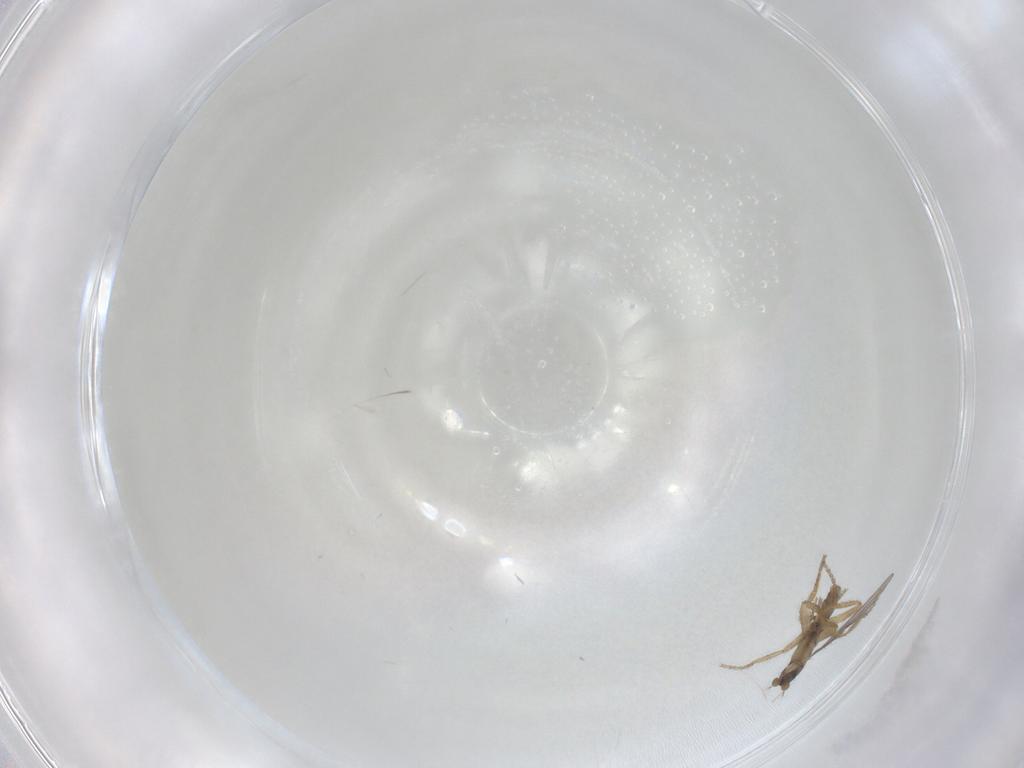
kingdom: Animalia
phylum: Arthropoda
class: Insecta
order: Diptera
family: Phoridae
